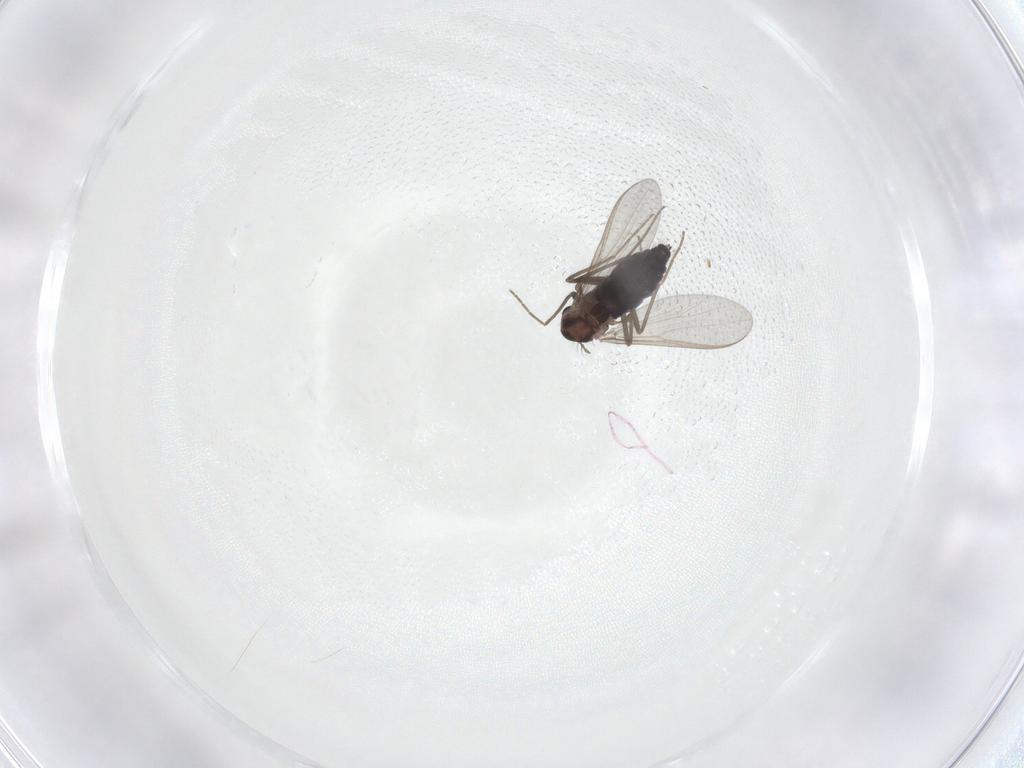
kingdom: Animalia
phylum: Arthropoda
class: Insecta
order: Diptera
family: Chironomidae
